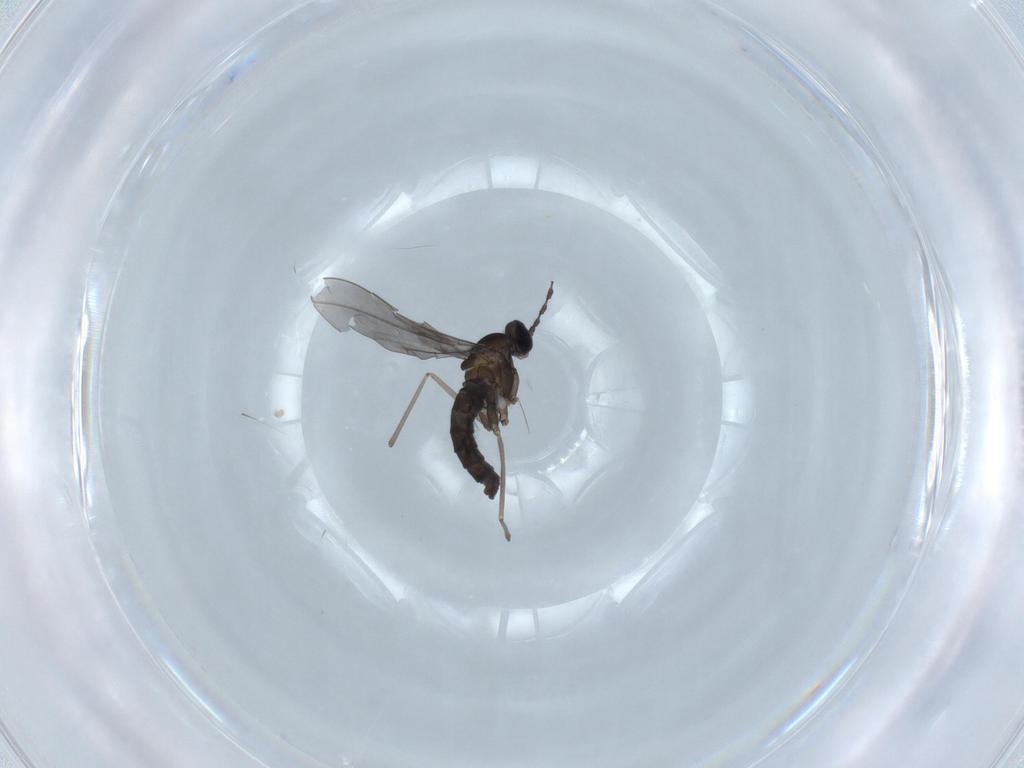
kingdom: Animalia
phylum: Arthropoda
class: Insecta
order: Diptera
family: Cecidomyiidae
